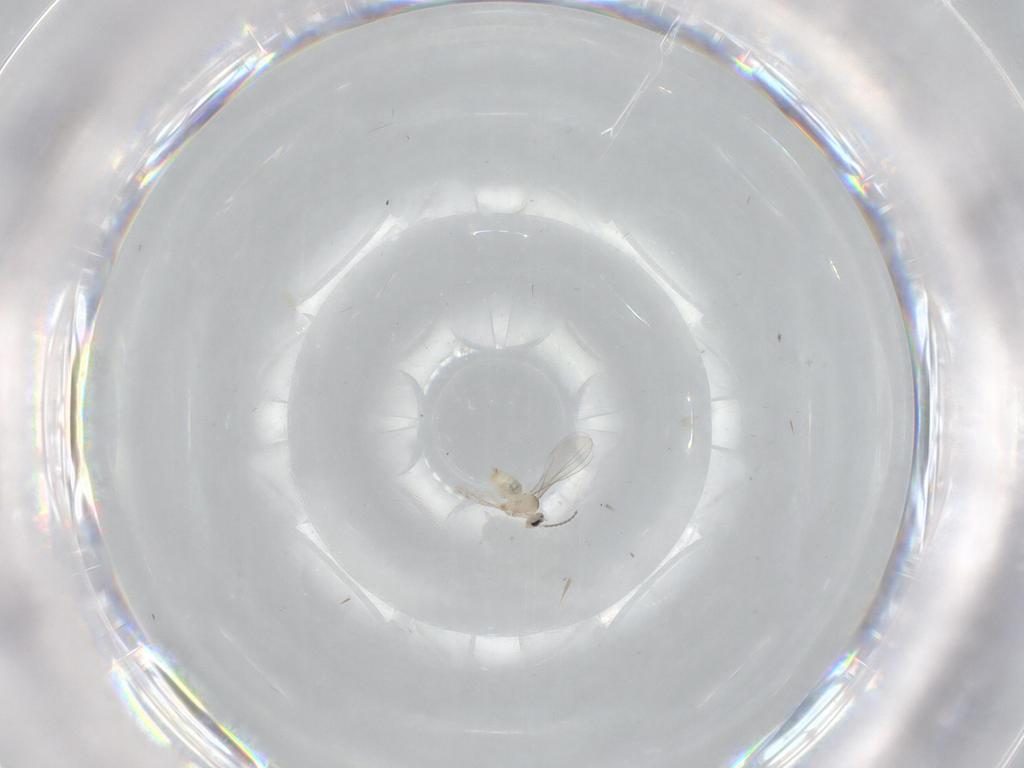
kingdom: Animalia
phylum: Arthropoda
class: Insecta
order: Diptera
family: Cecidomyiidae
